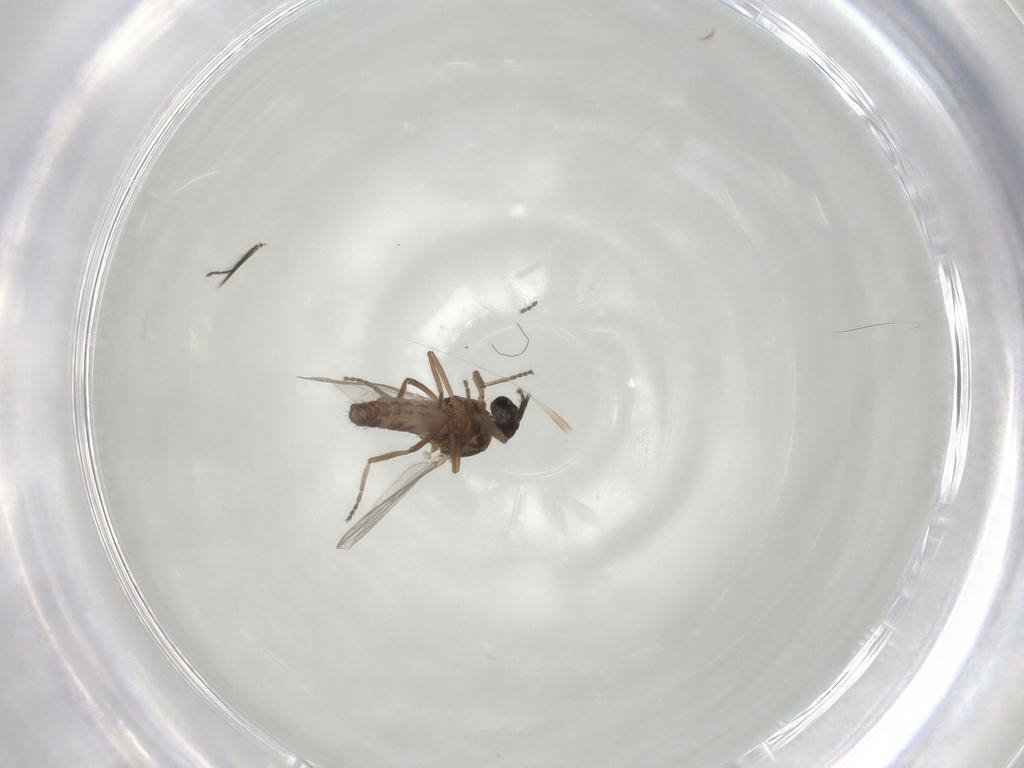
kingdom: Animalia
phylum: Arthropoda
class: Insecta
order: Diptera
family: Ceratopogonidae
